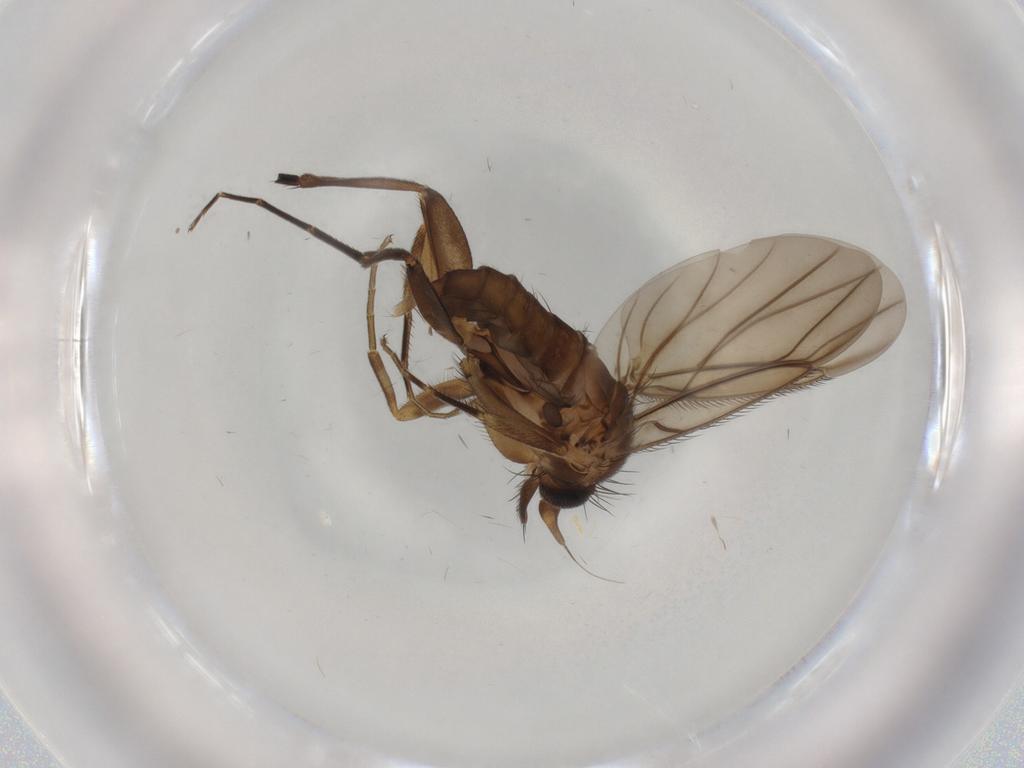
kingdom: Animalia
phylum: Arthropoda
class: Insecta
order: Diptera
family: Phoridae
